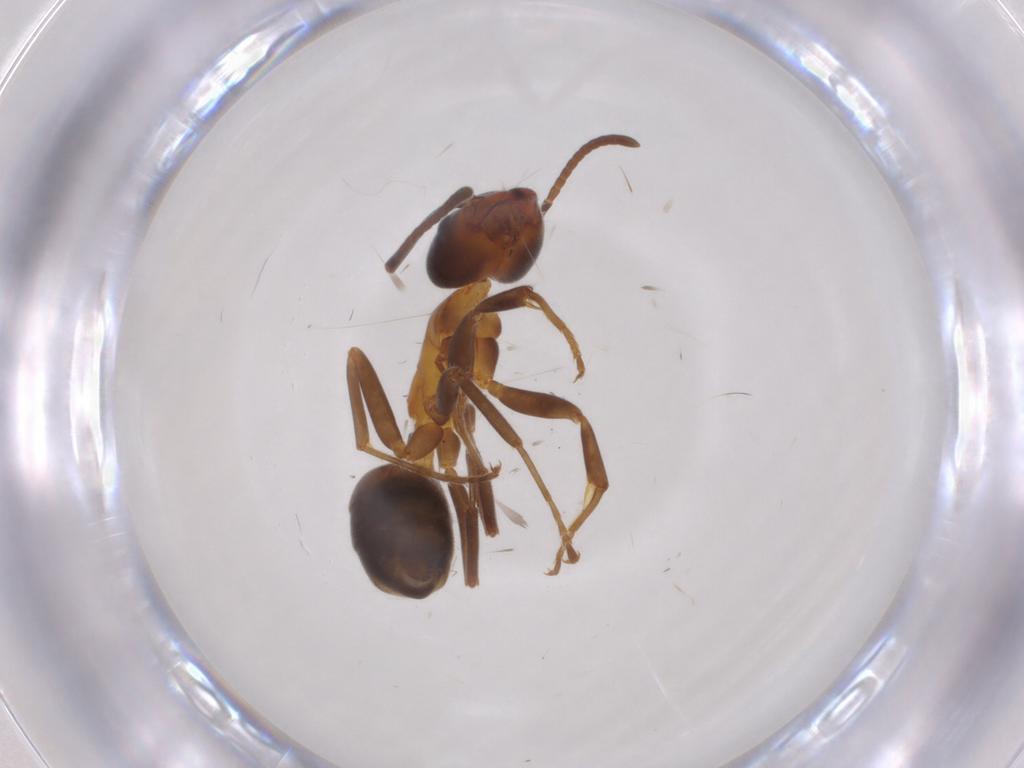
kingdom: Animalia
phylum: Arthropoda
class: Insecta
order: Hymenoptera
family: Formicidae
